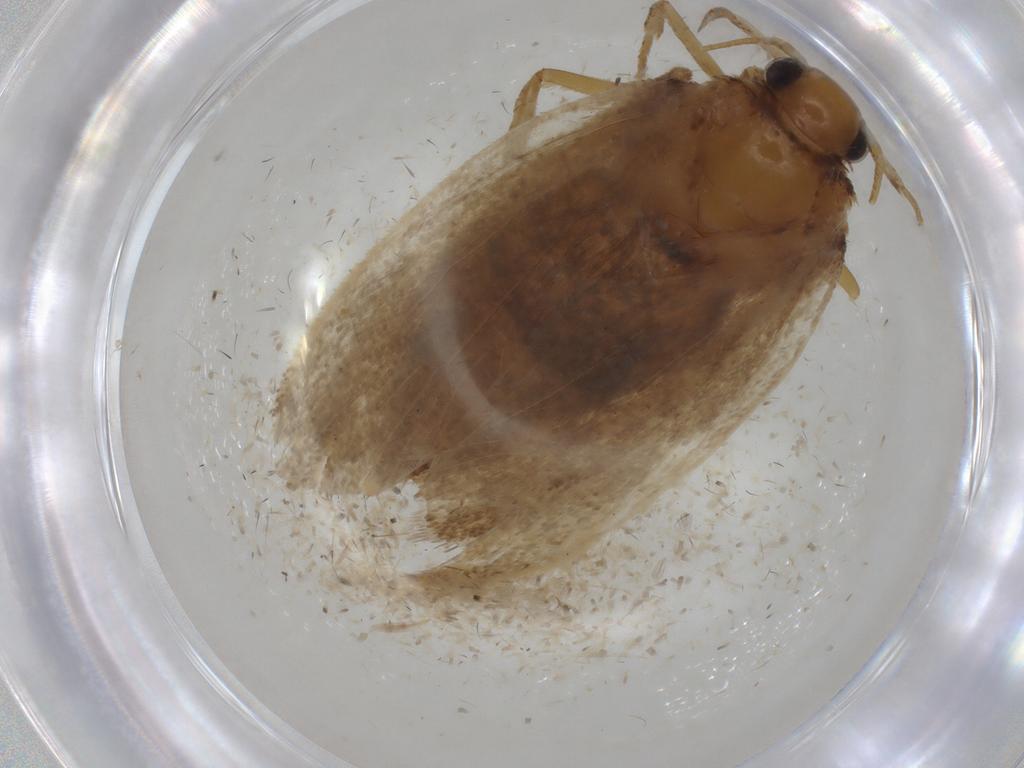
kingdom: Animalia
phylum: Arthropoda
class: Insecta
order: Lepidoptera
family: Depressariidae
